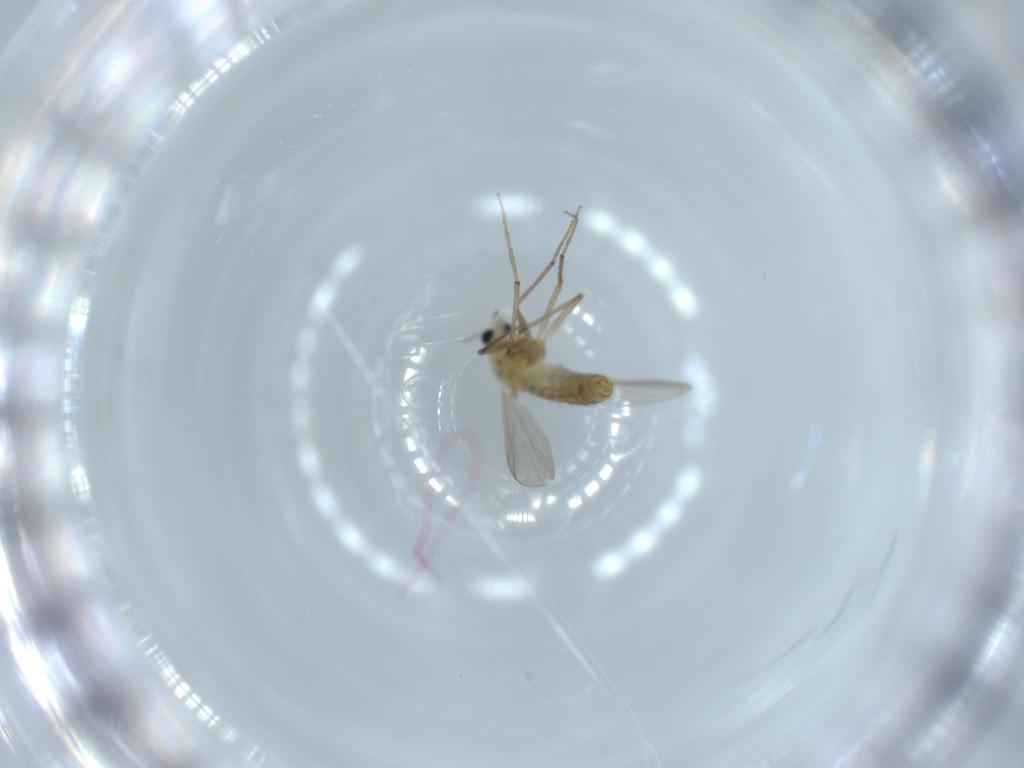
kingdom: Animalia
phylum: Arthropoda
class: Insecta
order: Diptera
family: Chironomidae
